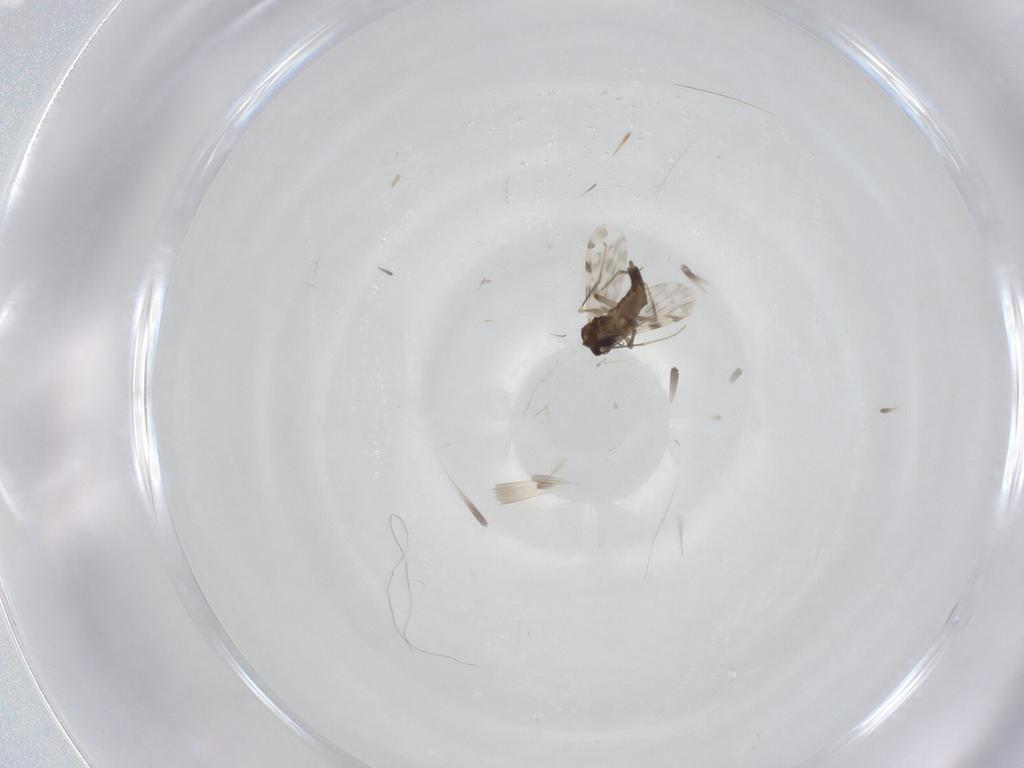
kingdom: Animalia
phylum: Arthropoda
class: Insecta
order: Diptera
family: Ceratopogonidae
